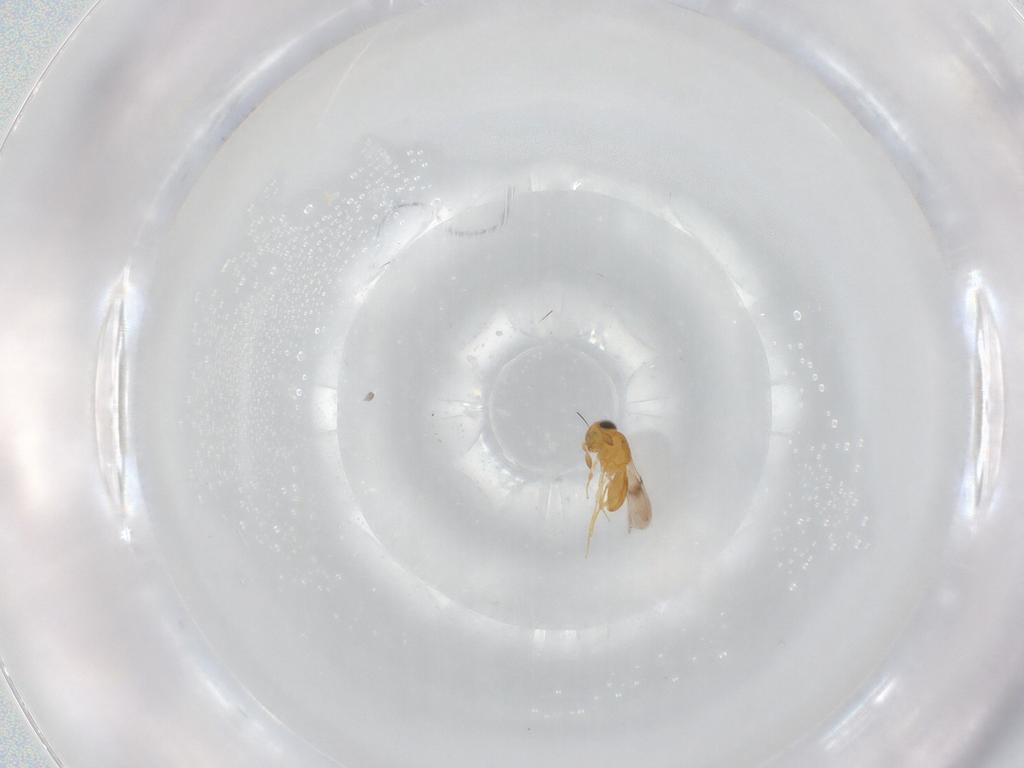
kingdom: Animalia
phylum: Arthropoda
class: Insecta
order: Hymenoptera
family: Scelionidae
